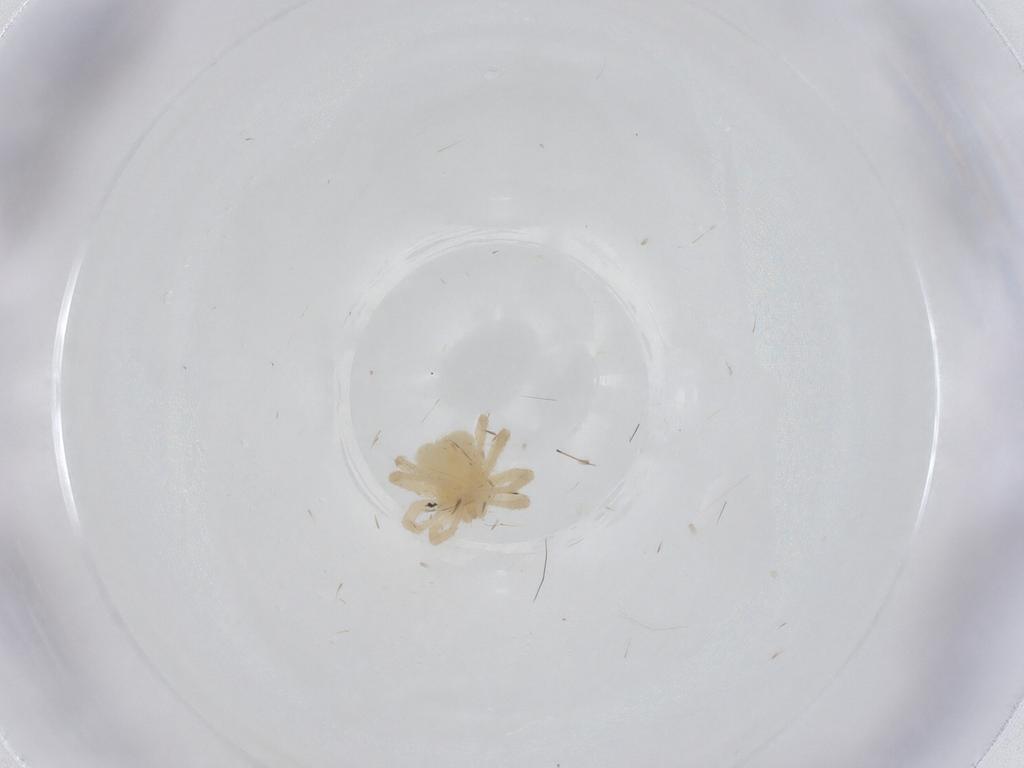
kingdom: Animalia
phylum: Arthropoda
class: Arachnida
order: Trombidiformes
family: Anystidae
